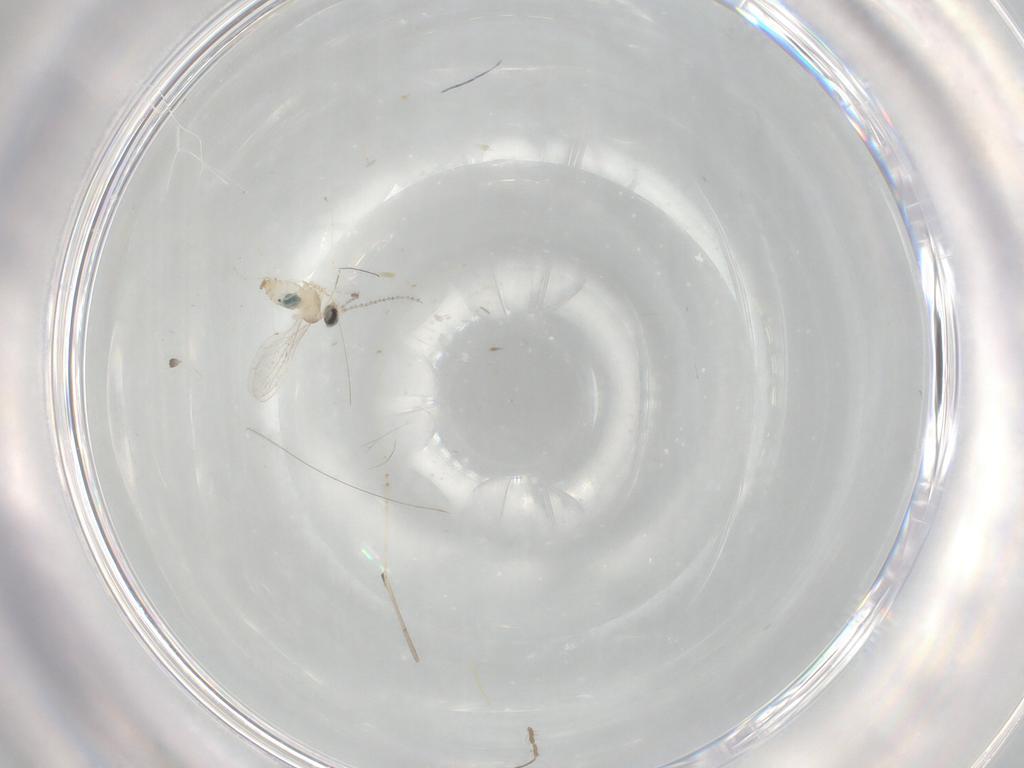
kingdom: Animalia
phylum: Arthropoda
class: Insecta
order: Diptera
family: Cecidomyiidae
